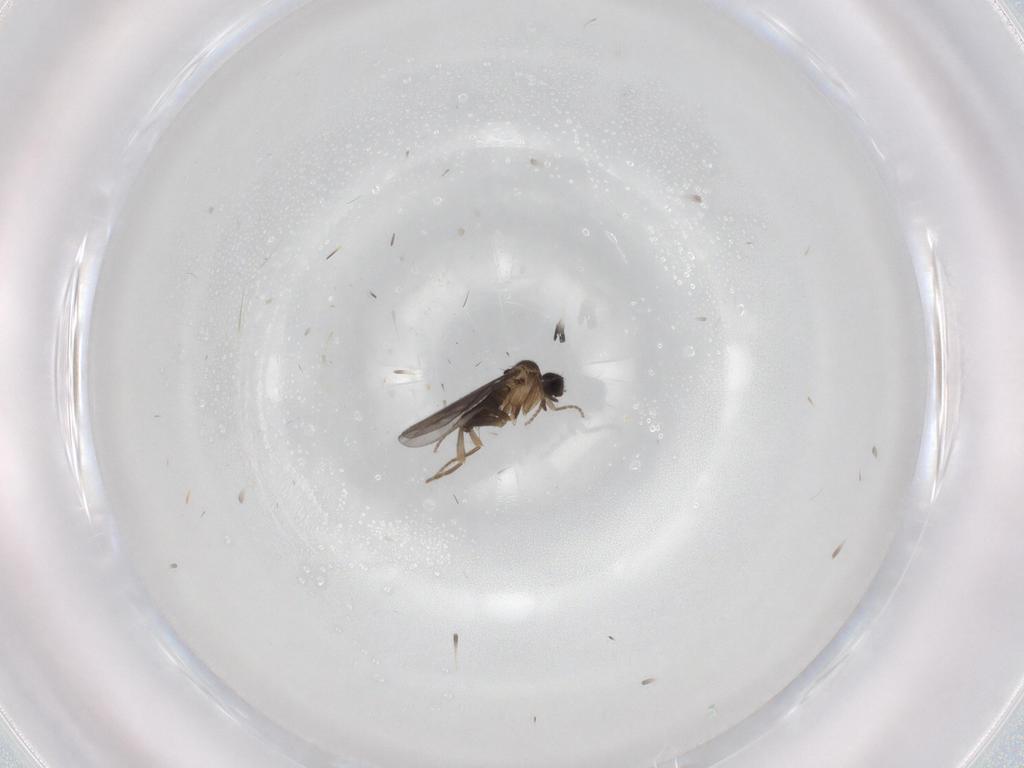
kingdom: Animalia
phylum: Arthropoda
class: Insecta
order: Diptera
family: Phoridae
